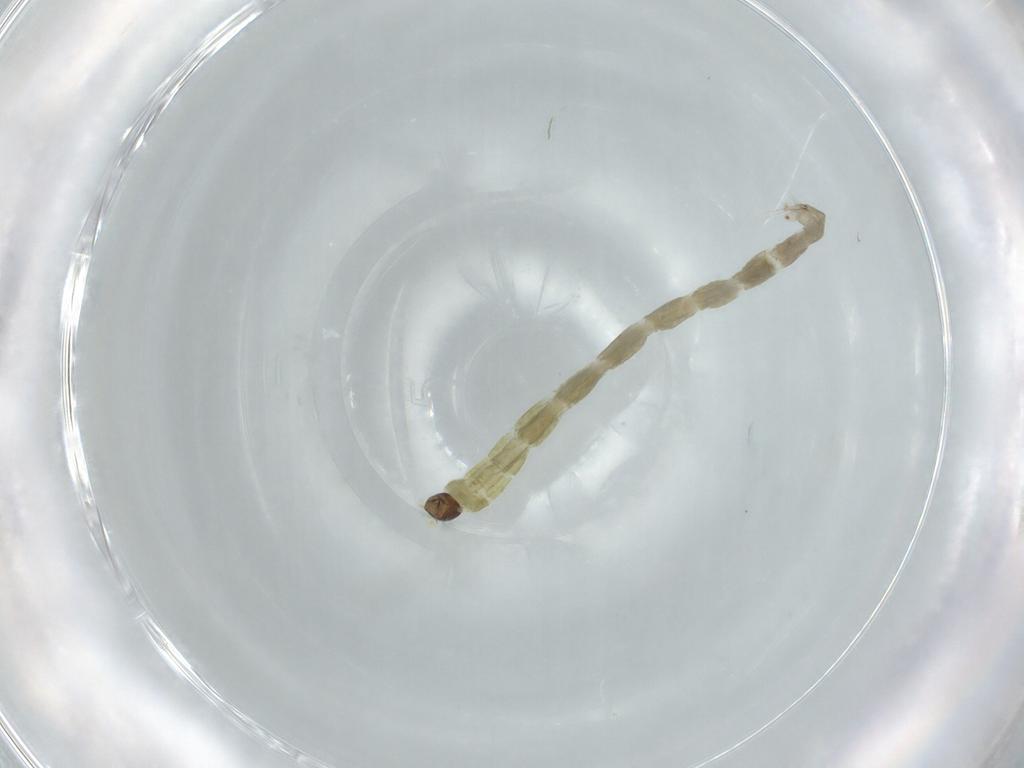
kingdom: Animalia
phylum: Arthropoda
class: Insecta
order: Diptera
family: Chironomidae
